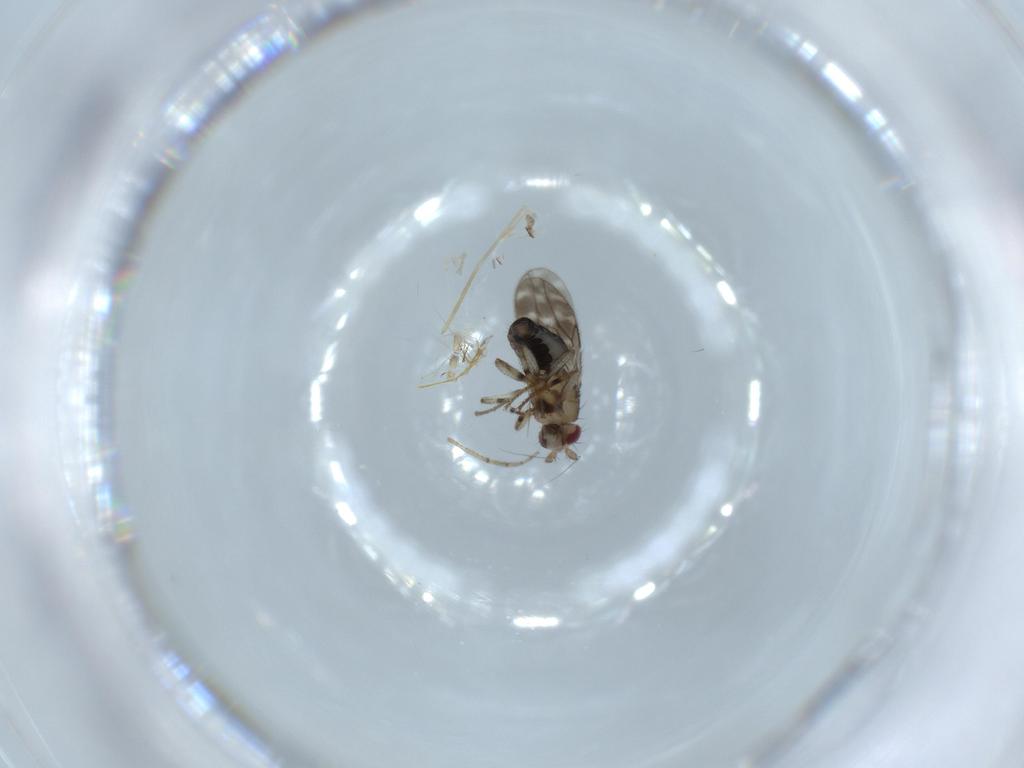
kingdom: Animalia
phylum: Arthropoda
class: Insecta
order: Diptera
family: Sphaeroceridae
